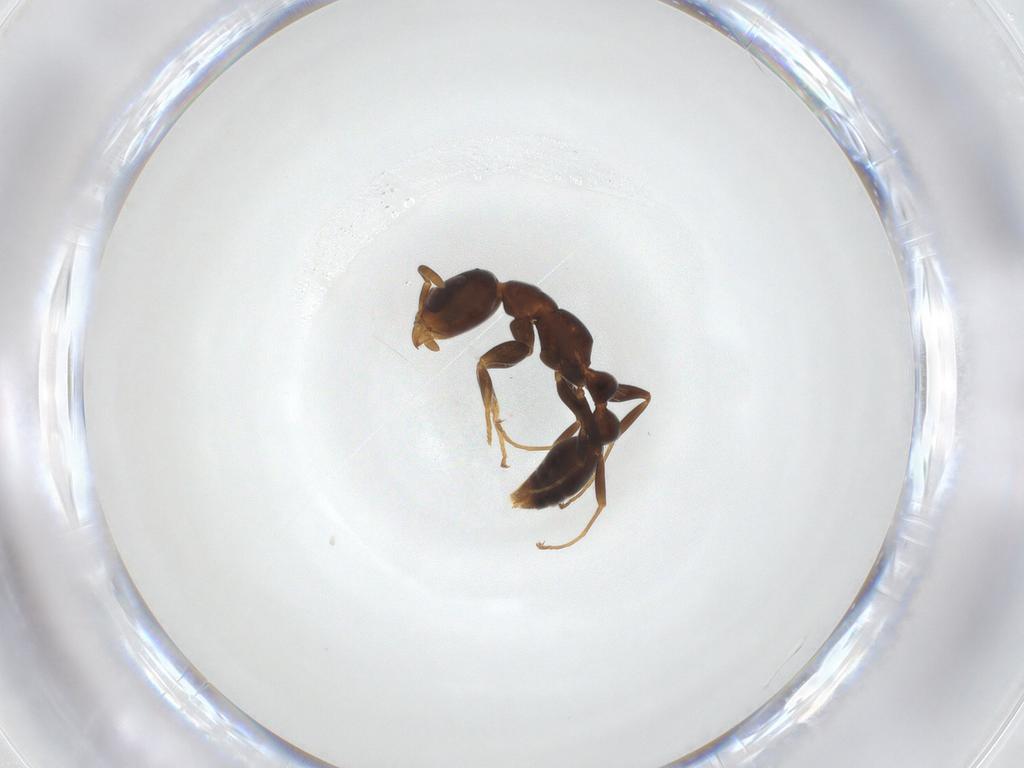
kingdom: Animalia
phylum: Arthropoda
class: Insecta
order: Hymenoptera
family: Formicidae
